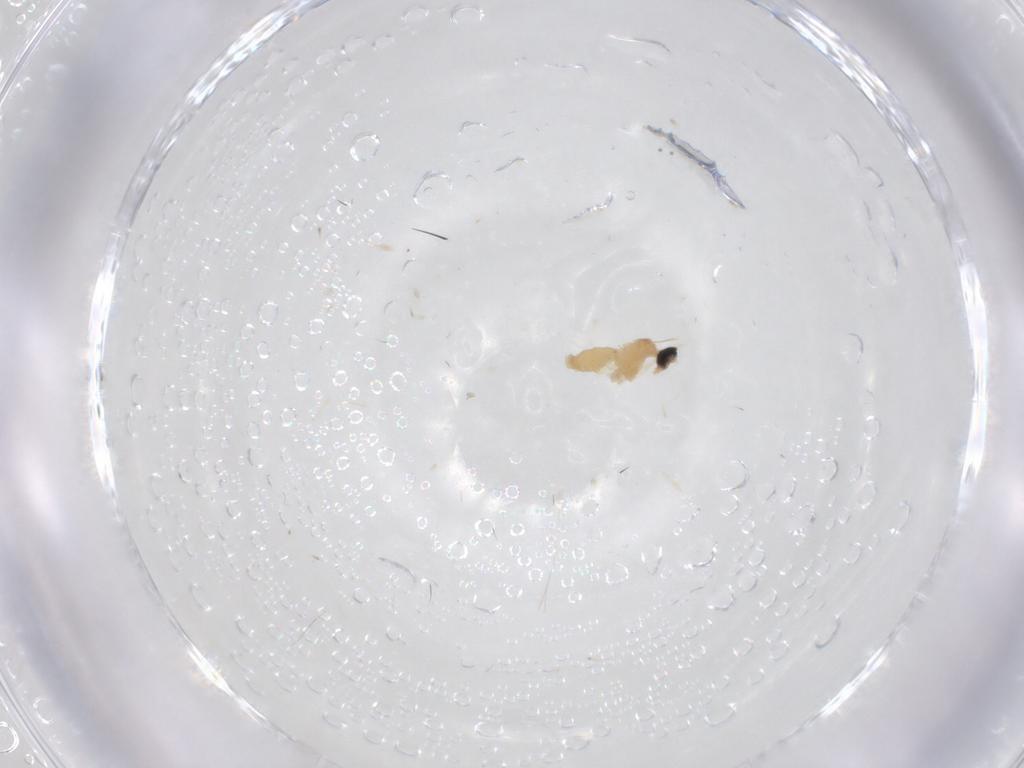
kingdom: Animalia
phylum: Arthropoda
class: Insecta
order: Diptera
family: Cecidomyiidae
